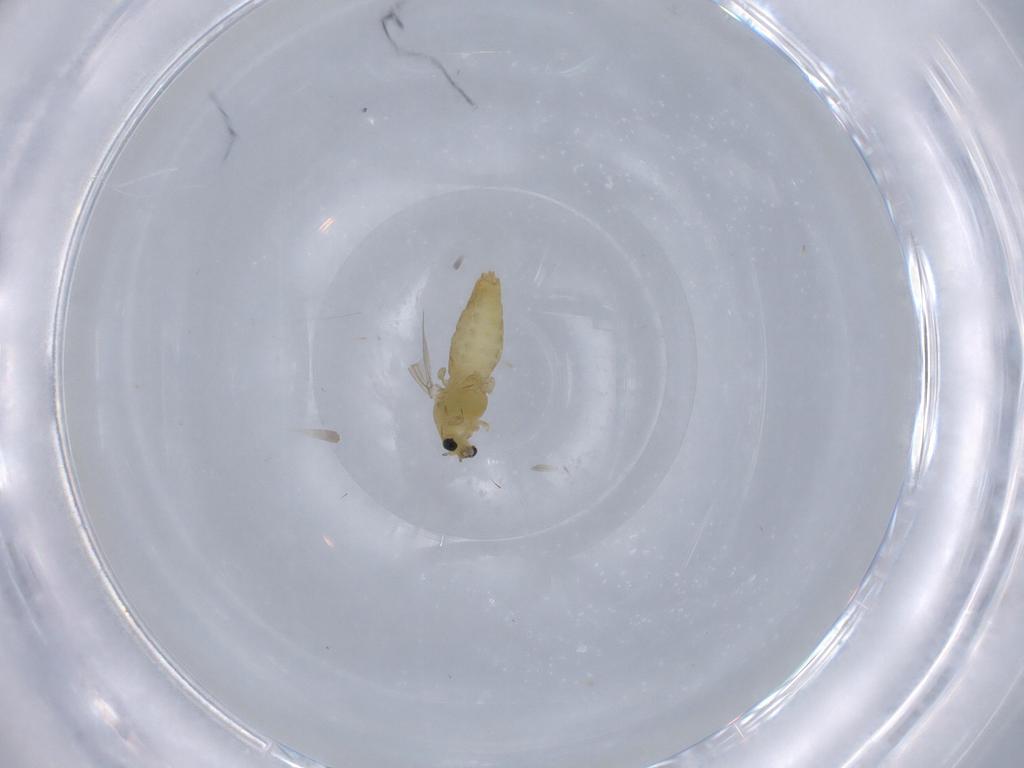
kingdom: Animalia
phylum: Arthropoda
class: Insecta
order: Diptera
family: Chironomidae
